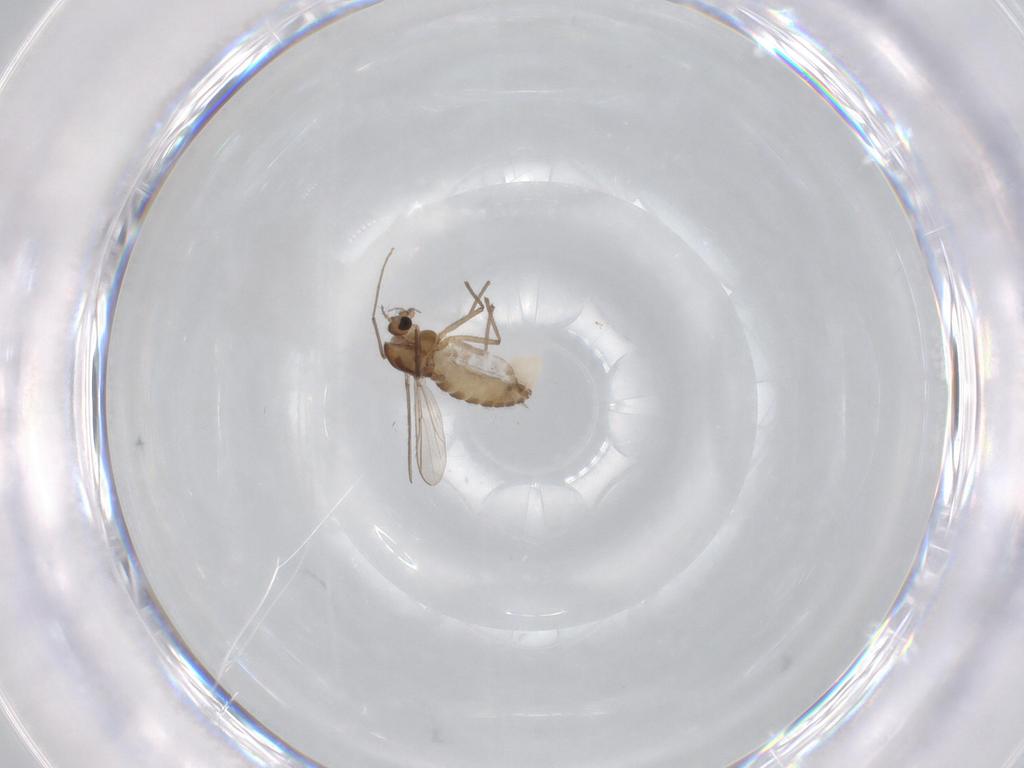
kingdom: Animalia
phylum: Arthropoda
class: Insecta
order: Diptera
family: Chironomidae
